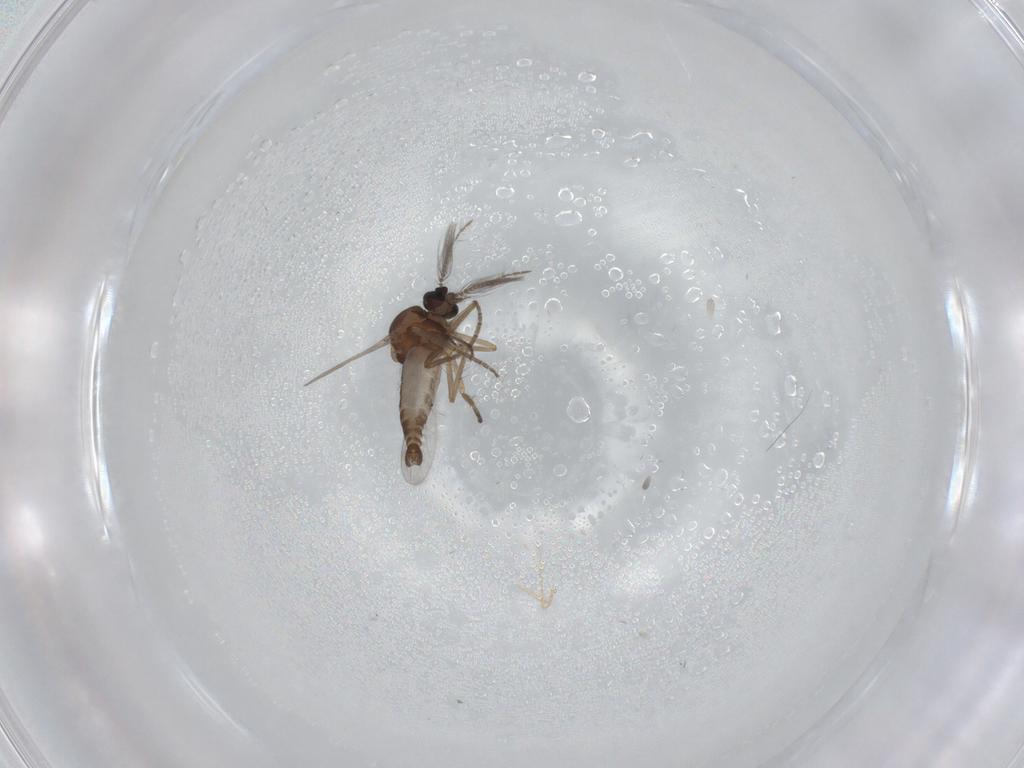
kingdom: Animalia
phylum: Arthropoda
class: Insecta
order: Diptera
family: Ceratopogonidae
